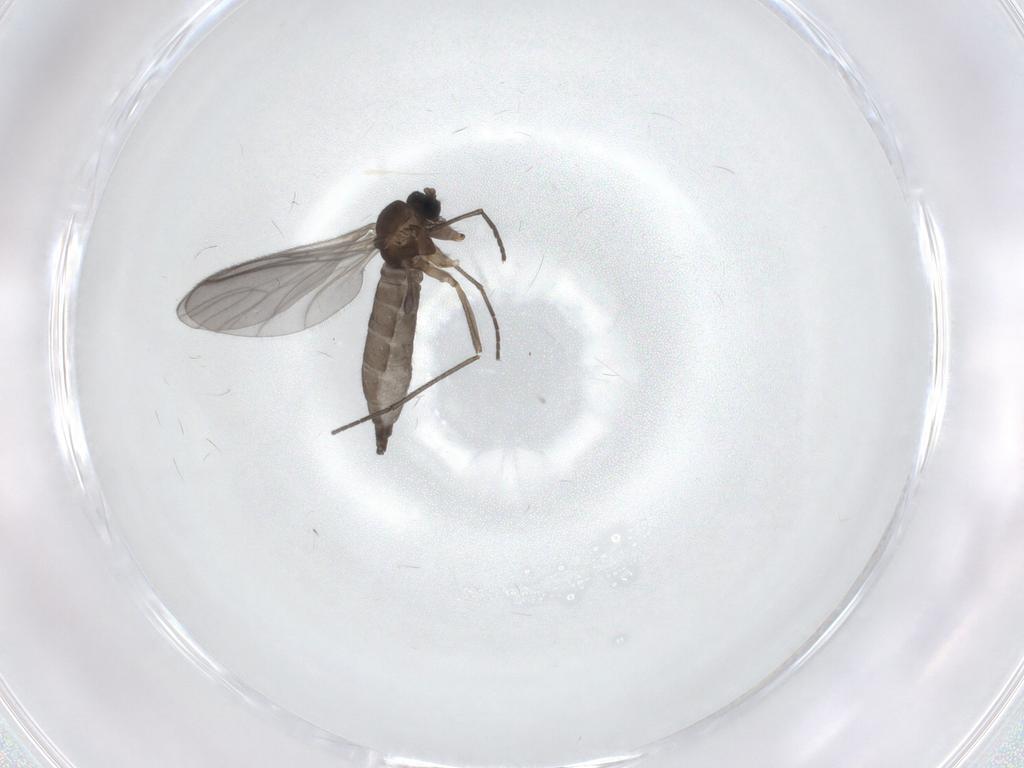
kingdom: Animalia
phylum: Arthropoda
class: Insecta
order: Diptera
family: Sciaridae
